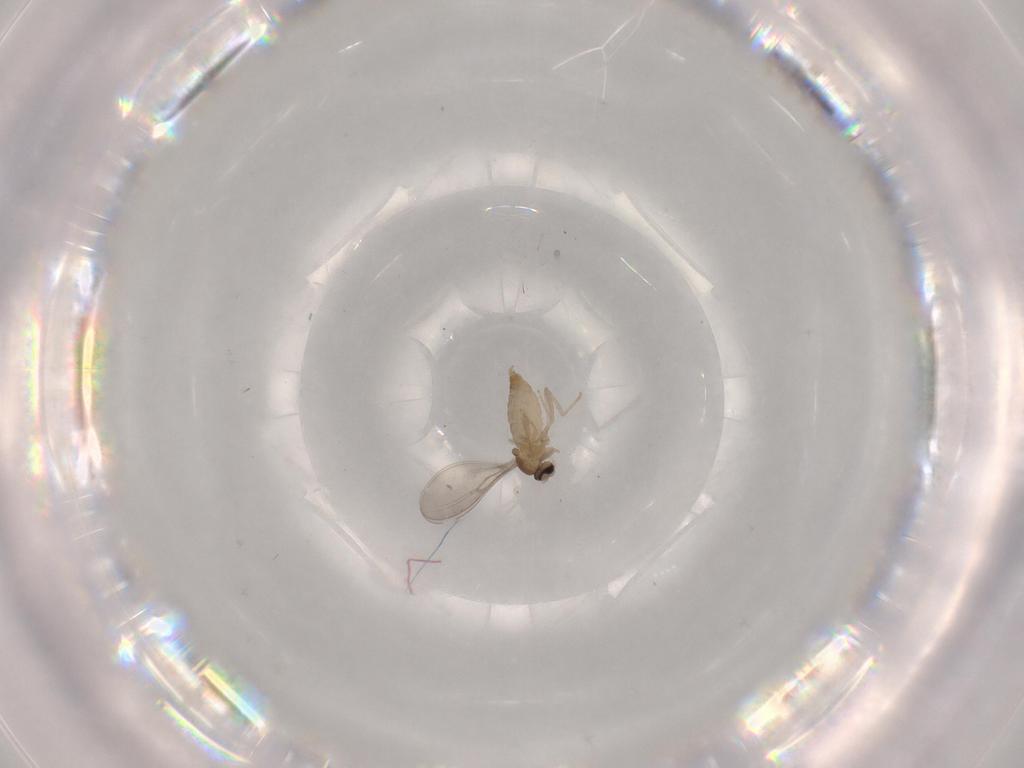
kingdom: Animalia
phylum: Arthropoda
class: Insecta
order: Diptera
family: Cecidomyiidae
